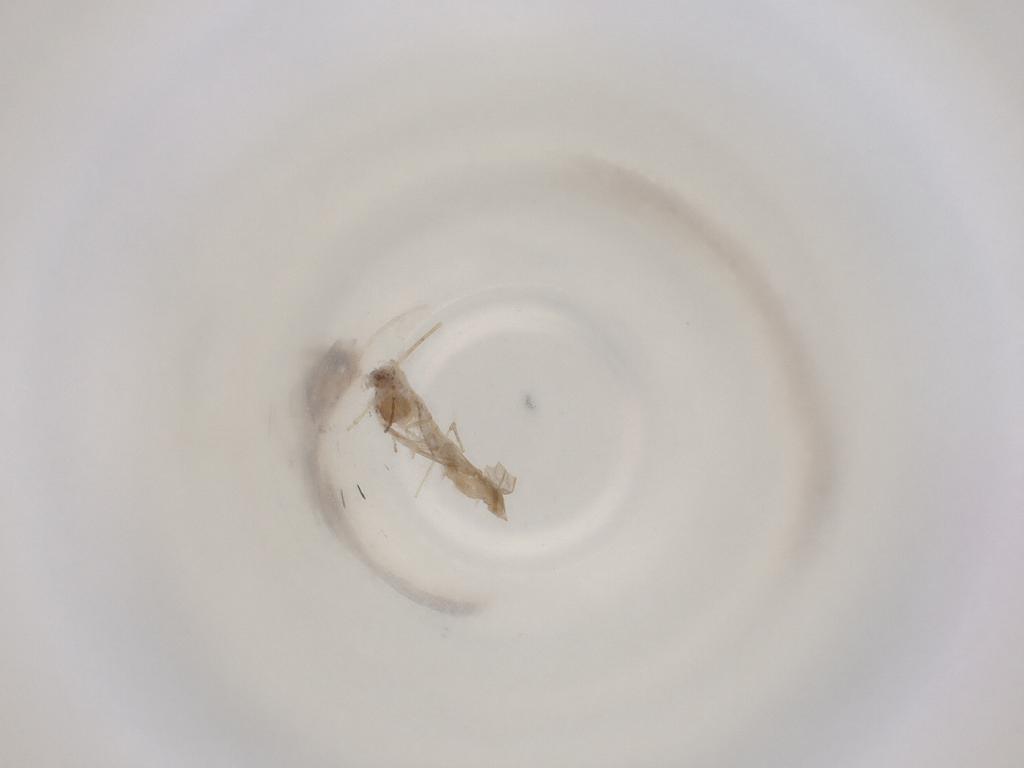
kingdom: Animalia
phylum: Arthropoda
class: Insecta
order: Diptera
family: Cecidomyiidae
